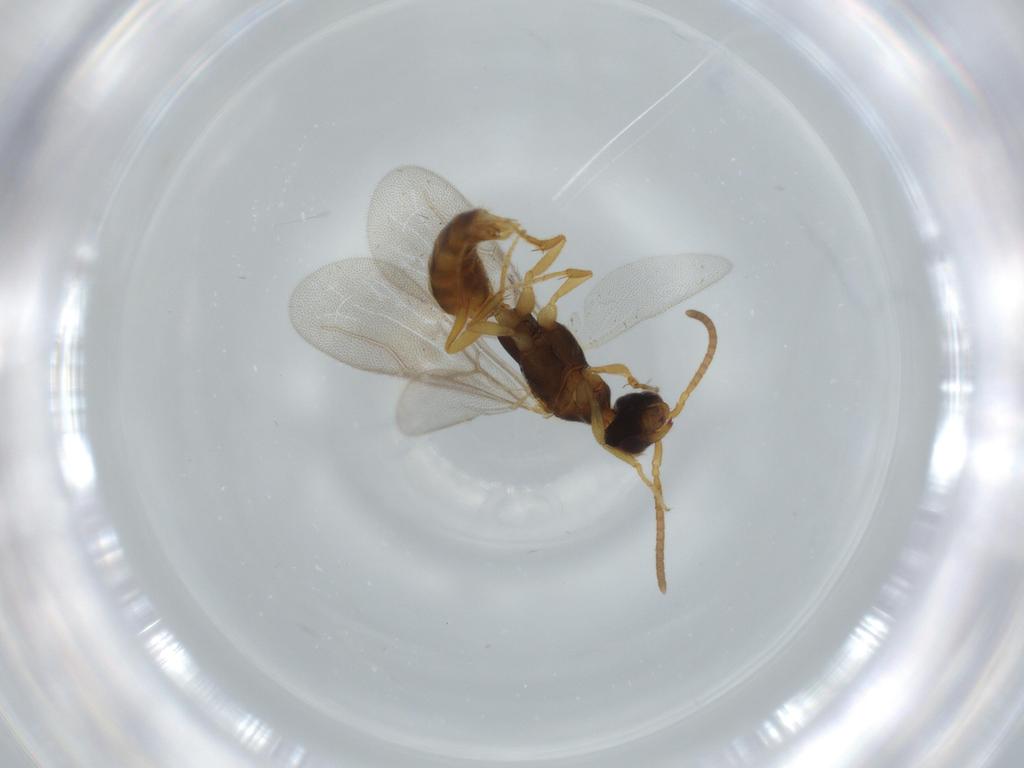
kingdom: Animalia
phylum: Arthropoda
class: Insecta
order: Hymenoptera
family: Bethylidae
